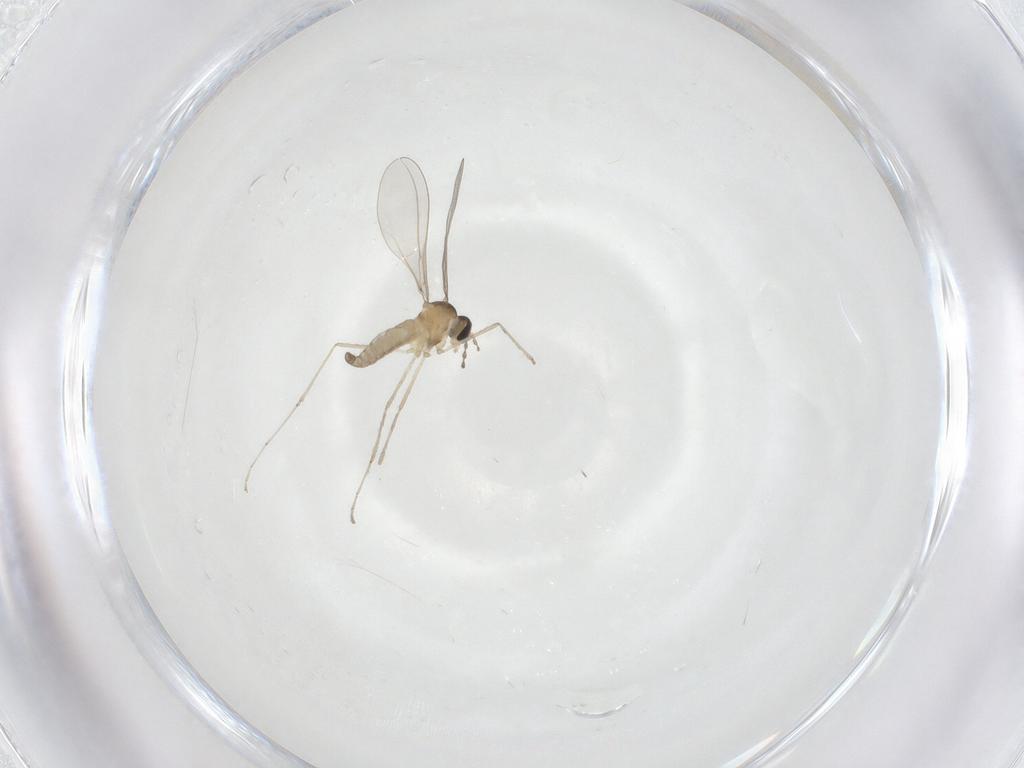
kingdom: Animalia
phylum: Arthropoda
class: Insecta
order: Diptera
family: Cecidomyiidae
